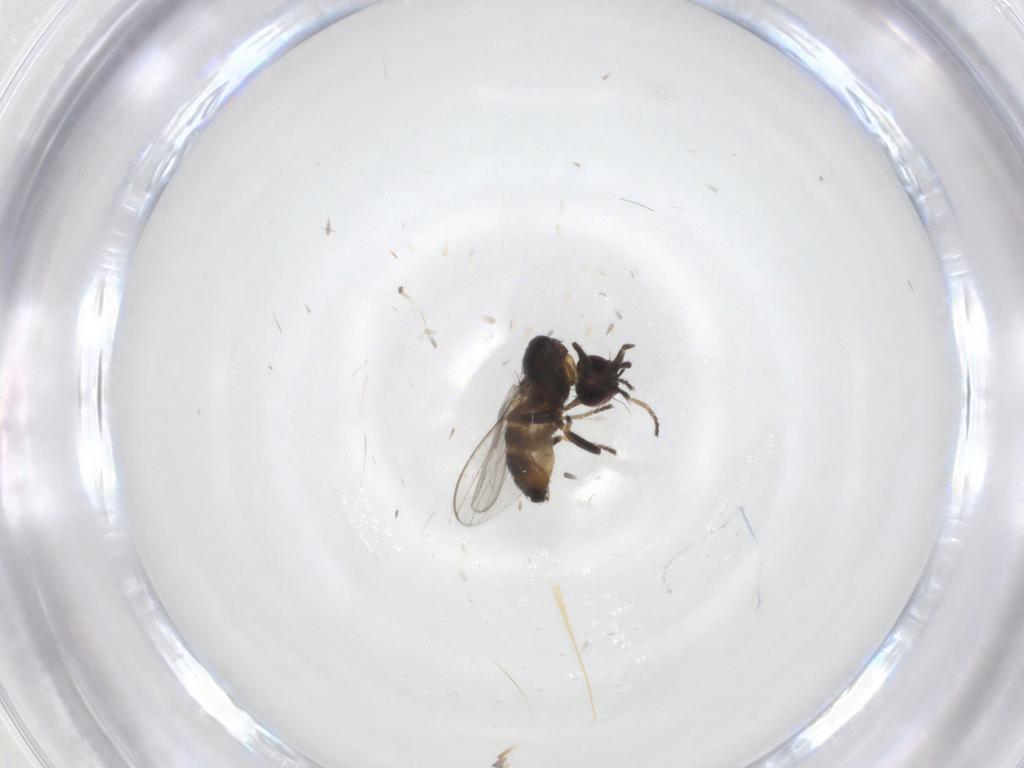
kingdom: Animalia
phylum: Arthropoda
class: Insecta
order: Diptera
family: Milichiidae
